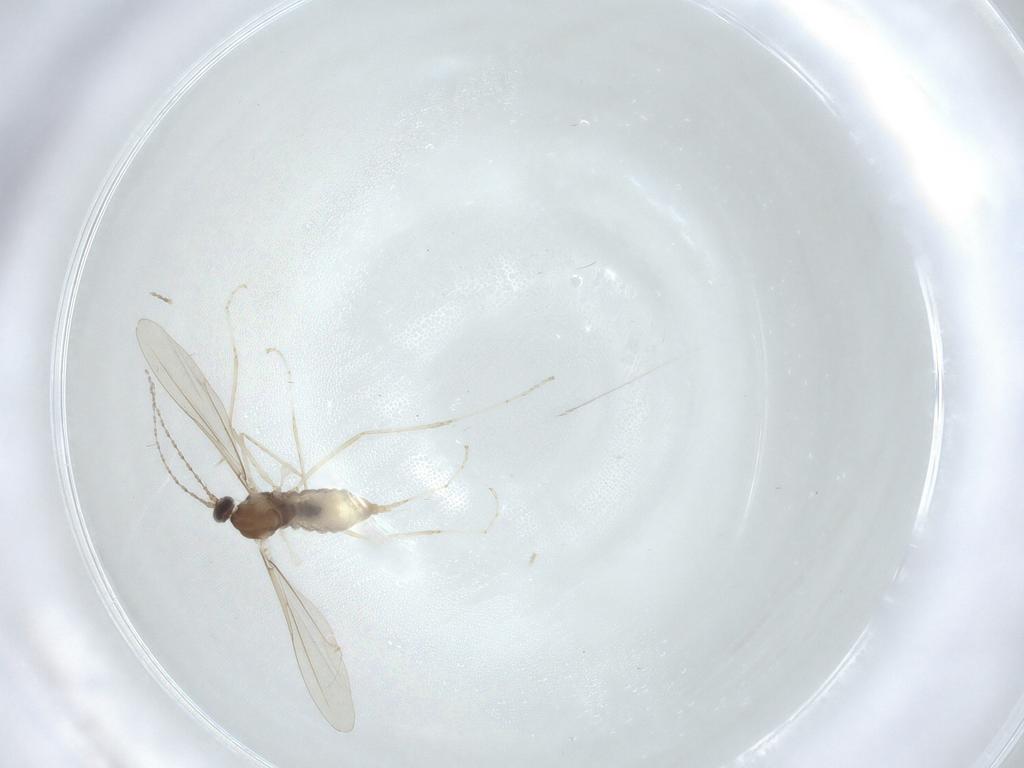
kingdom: Animalia
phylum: Arthropoda
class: Insecta
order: Diptera
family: Cecidomyiidae
